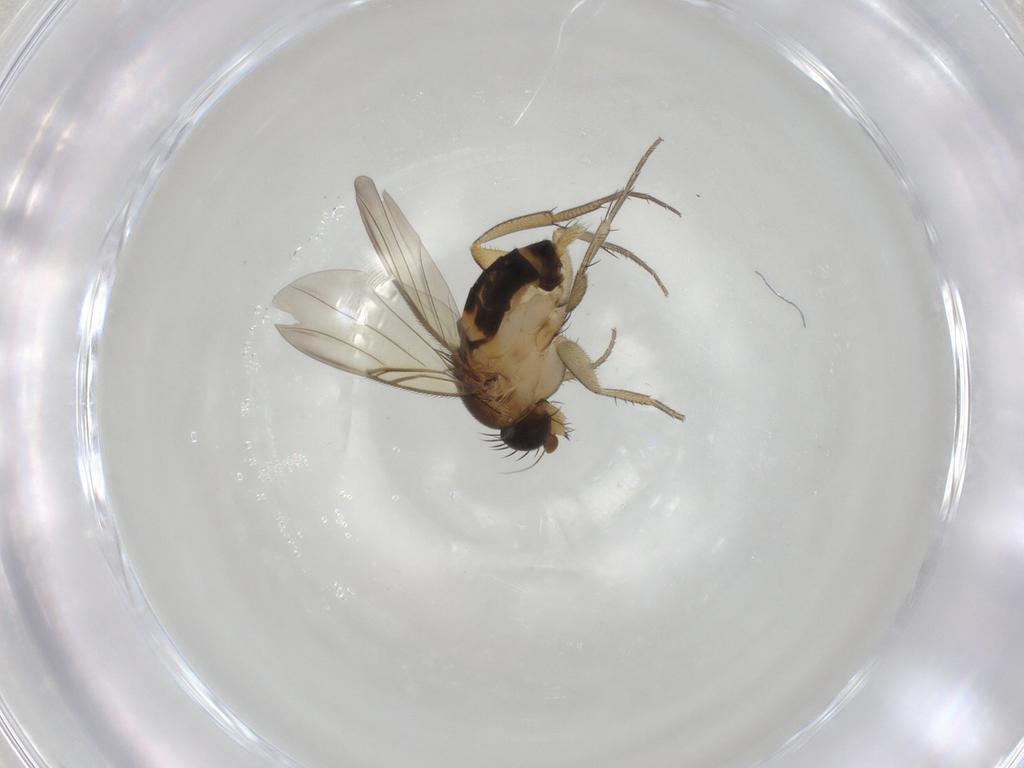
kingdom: Animalia
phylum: Arthropoda
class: Insecta
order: Diptera
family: Phoridae
